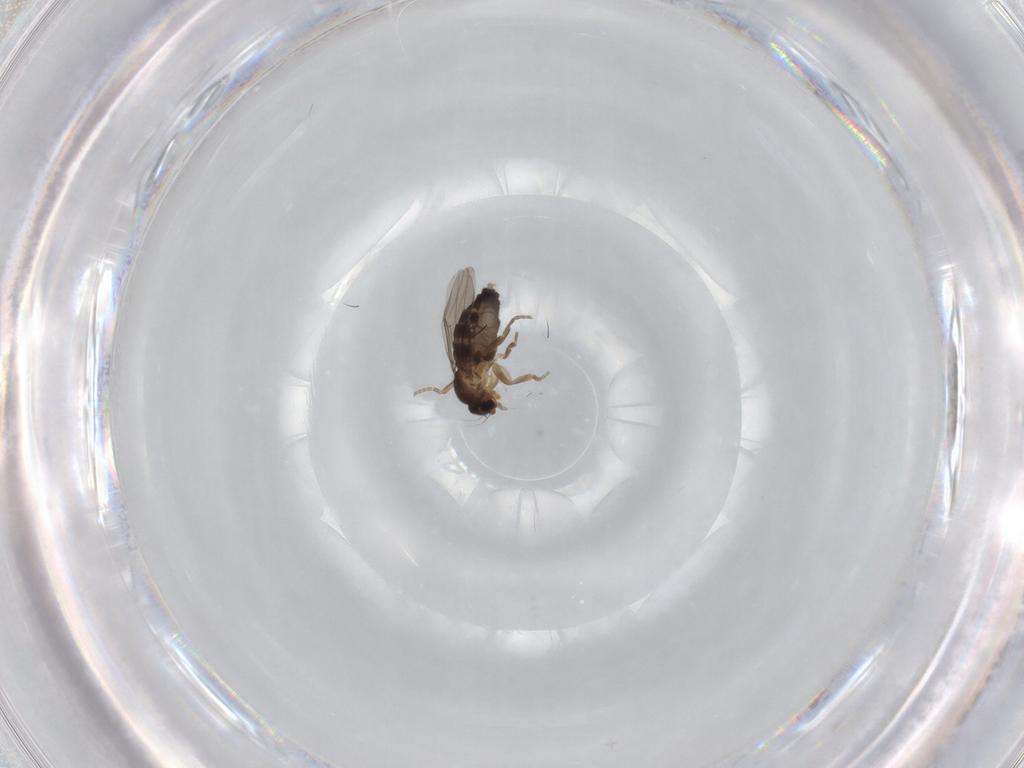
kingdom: Animalia
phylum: Arthropoda
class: Insecta
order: Diptera
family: Phoridae
